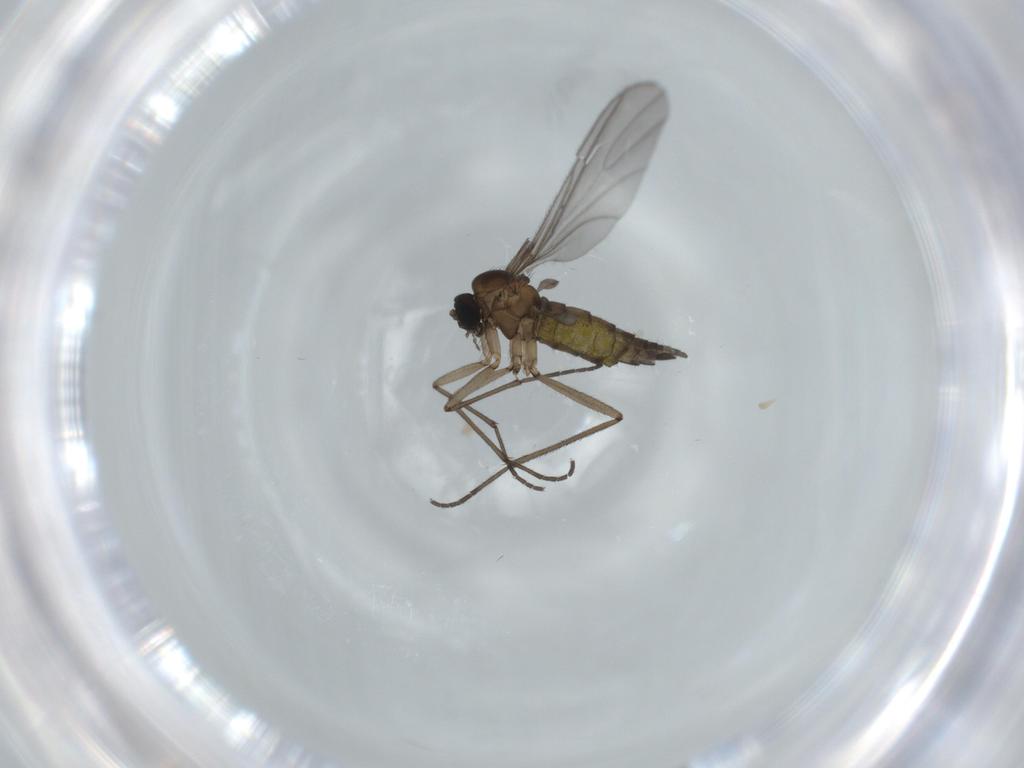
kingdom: Animalia
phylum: Arthropoda
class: Insecta
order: Diptera
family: Sciaridae
